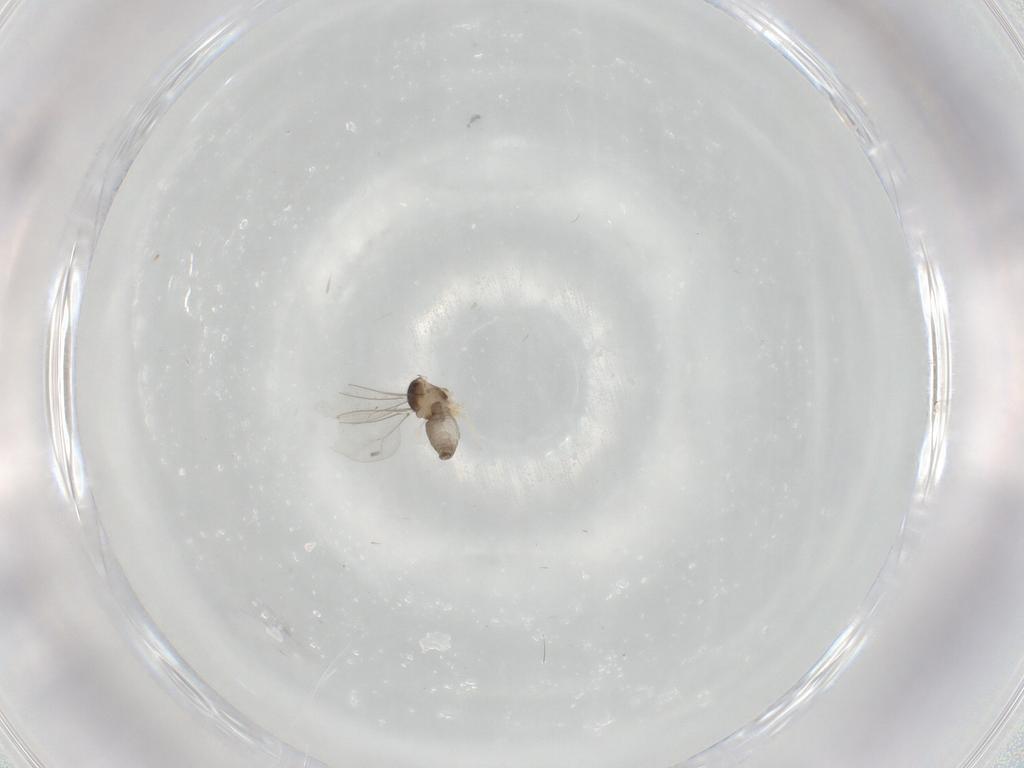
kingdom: Animalia
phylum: Arthropoda
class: Insecta
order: Diptera
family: Cecidomyiidae
